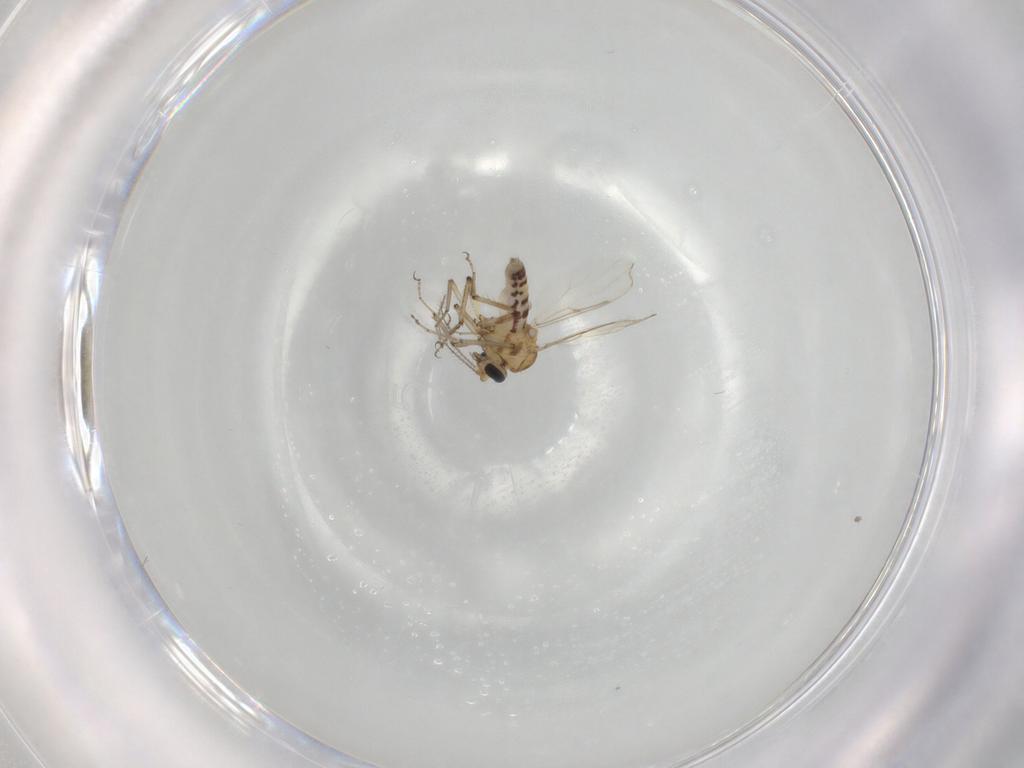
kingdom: Animalia
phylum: Arthropoda
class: Insecta
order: Diptera
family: Ceratopogonidae
